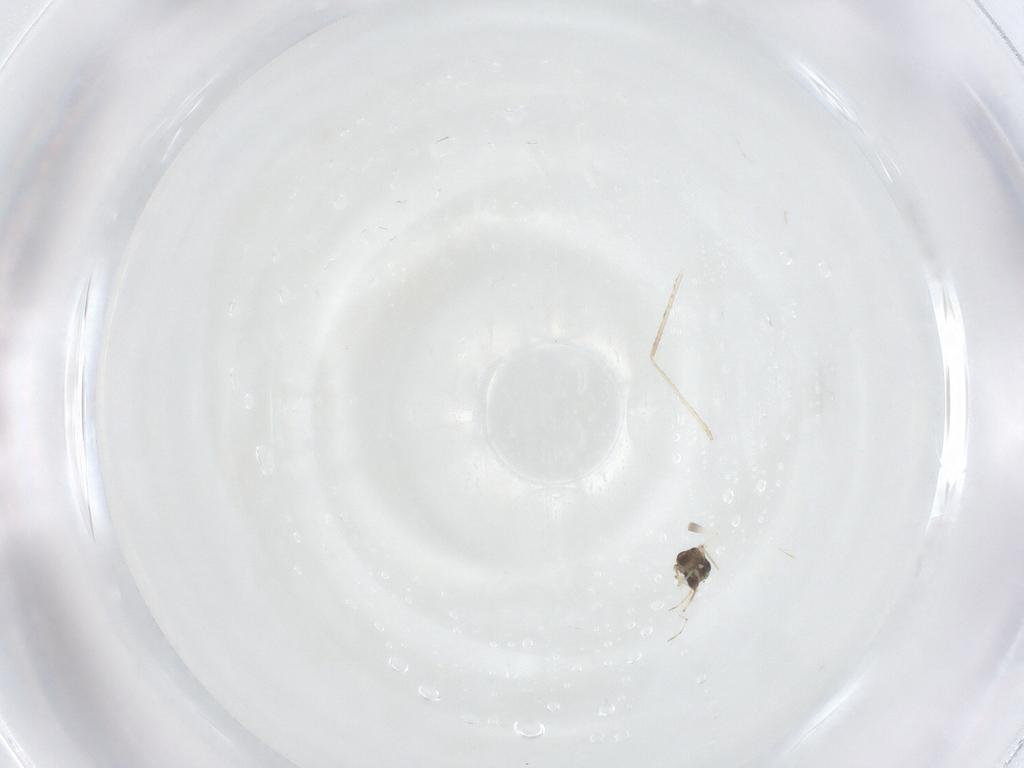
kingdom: Animalia
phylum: Arthropoda
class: Insecta
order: Diptera
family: Chironomidae
